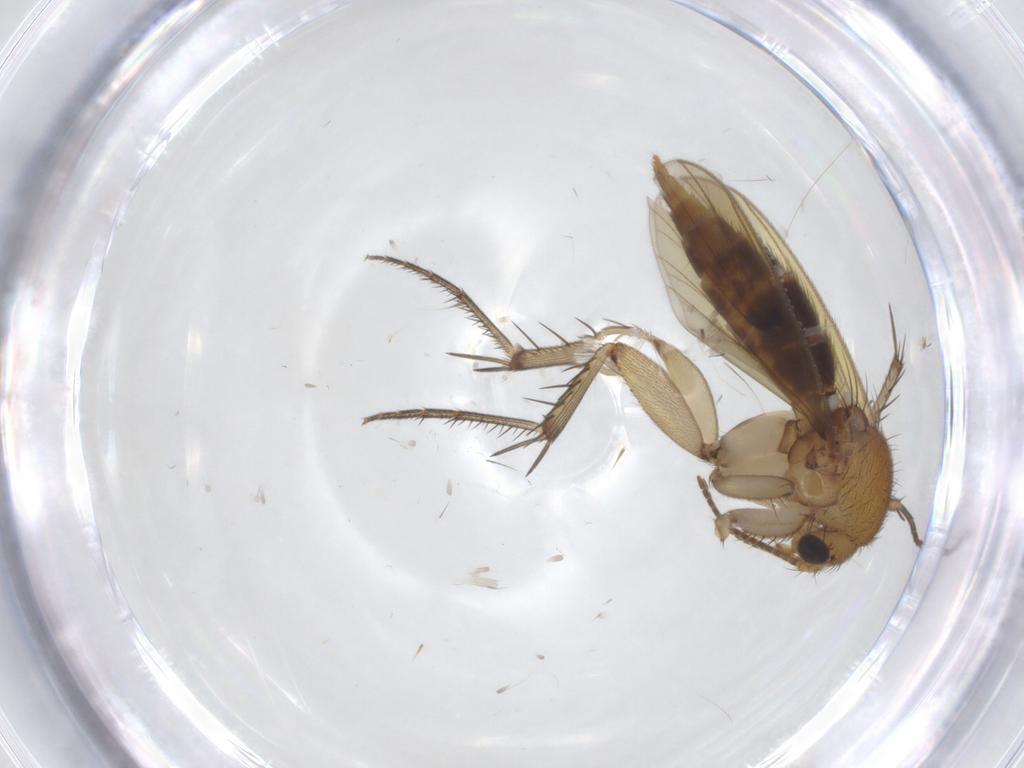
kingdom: Animalia
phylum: Arthropoda
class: Insecta
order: Diptera
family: Mycetophilidae
